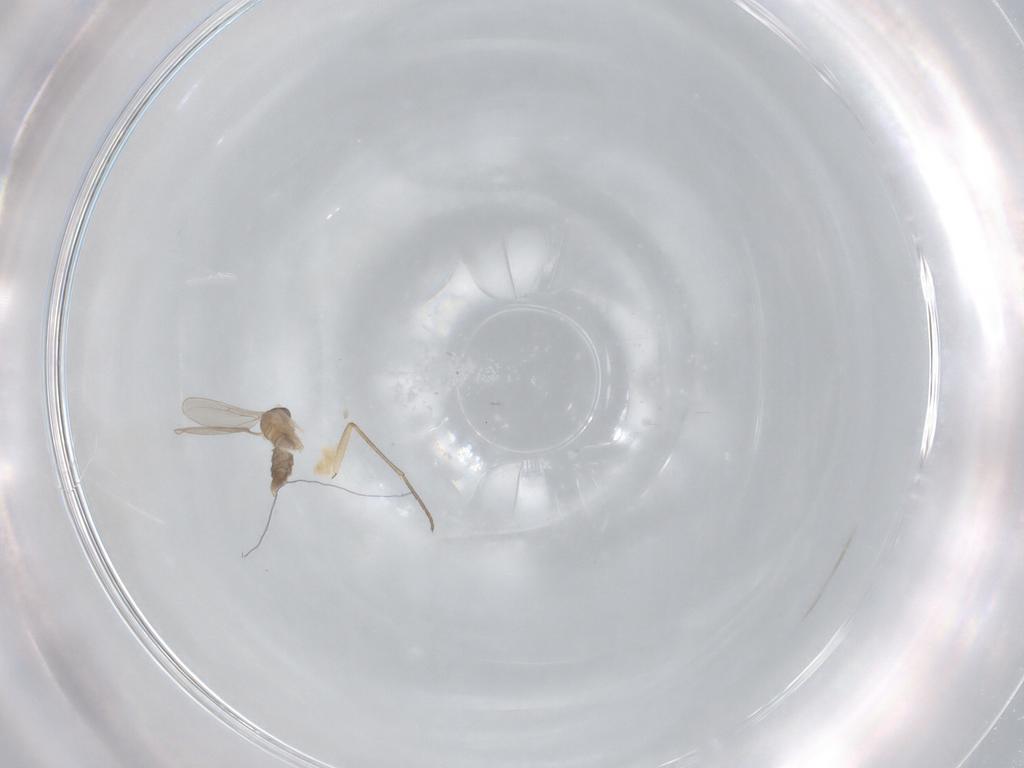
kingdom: Animalia
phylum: Arthropoda
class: Insecta
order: Diptera
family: Cecidomyiidae
